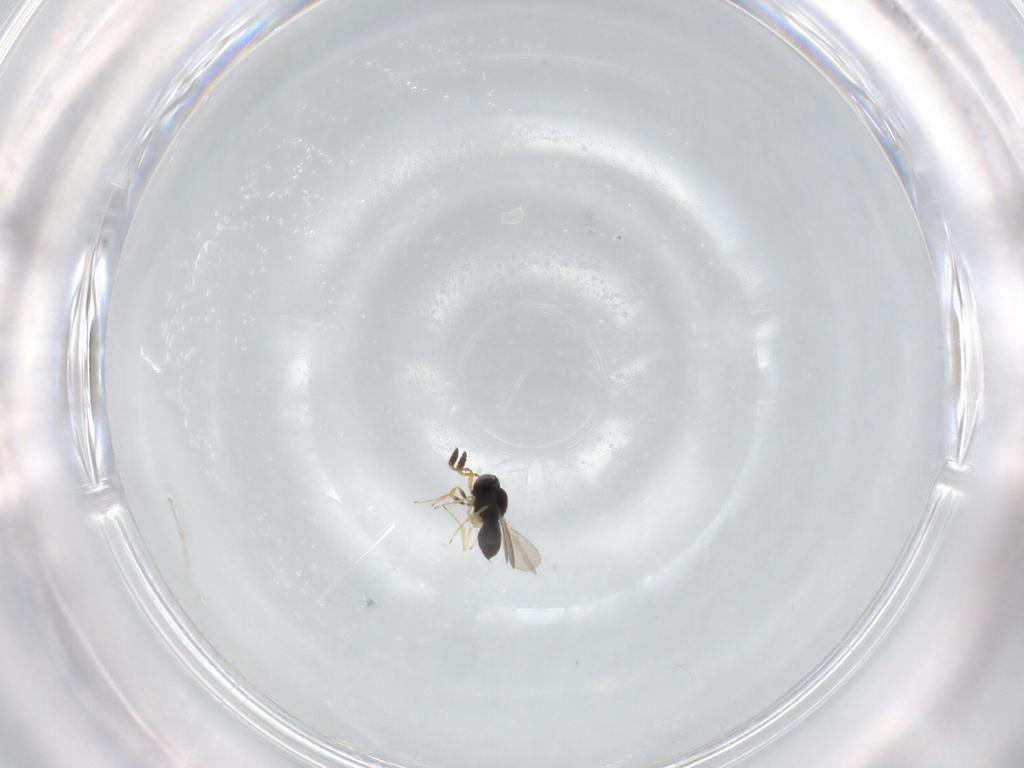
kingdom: Animalia
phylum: Arthropoda
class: Insecta
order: Hymenoptera
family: Scelionidae
